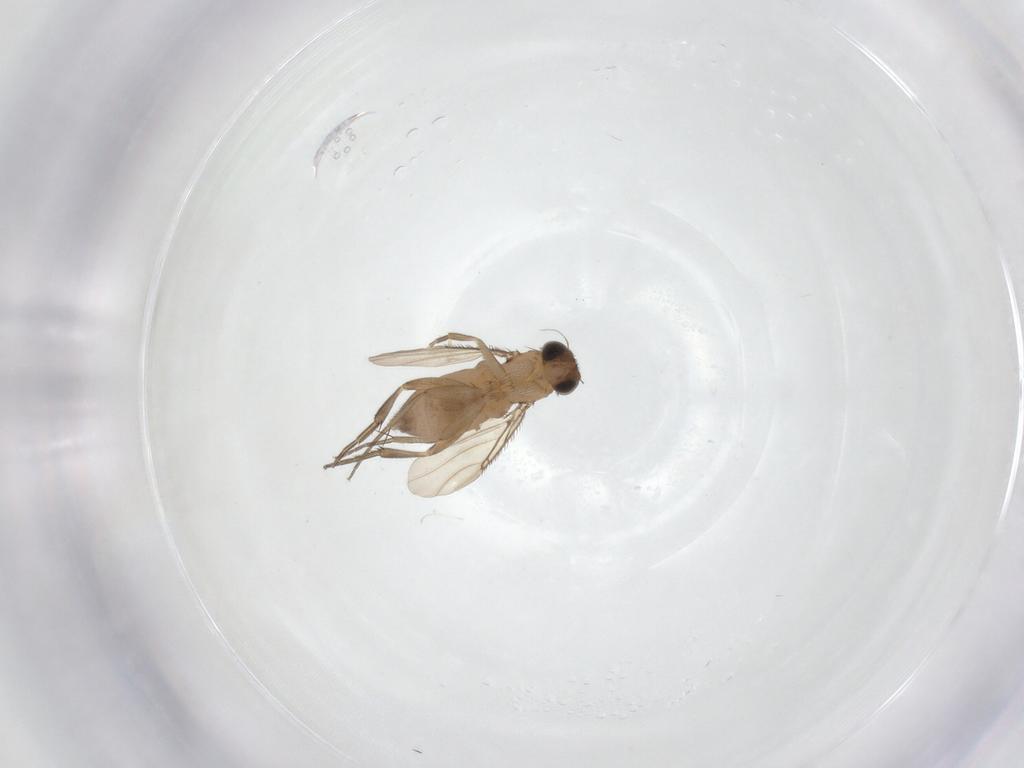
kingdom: Animalia
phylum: Arthropoda
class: Insecta
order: Diptera
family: Phoridae
